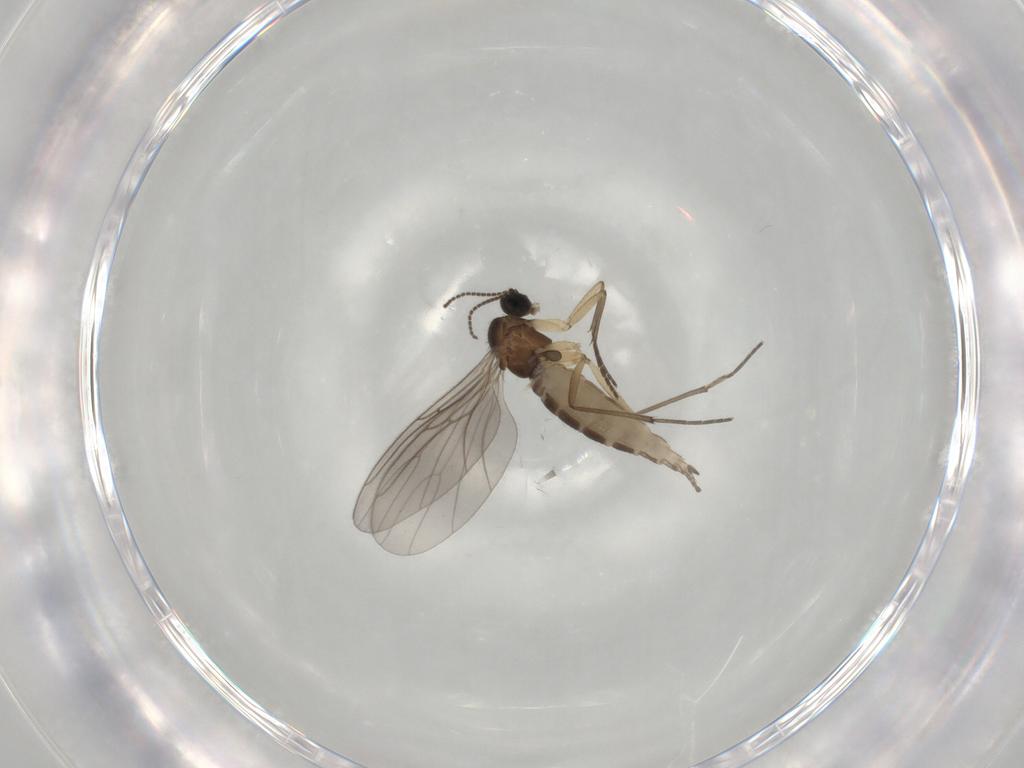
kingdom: Animalia
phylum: Arthropoda
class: Insecta
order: Diptera
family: Sciaridae
